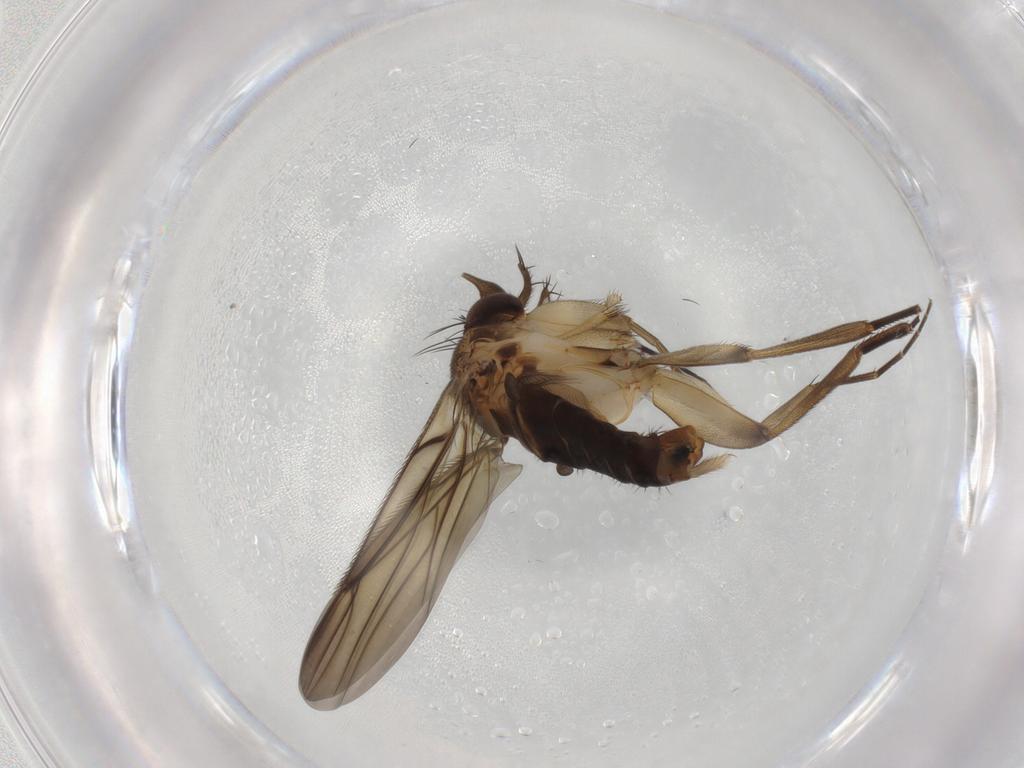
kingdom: Animalia
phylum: Arthropoda
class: Insecta
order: Diptera
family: Phoridae
